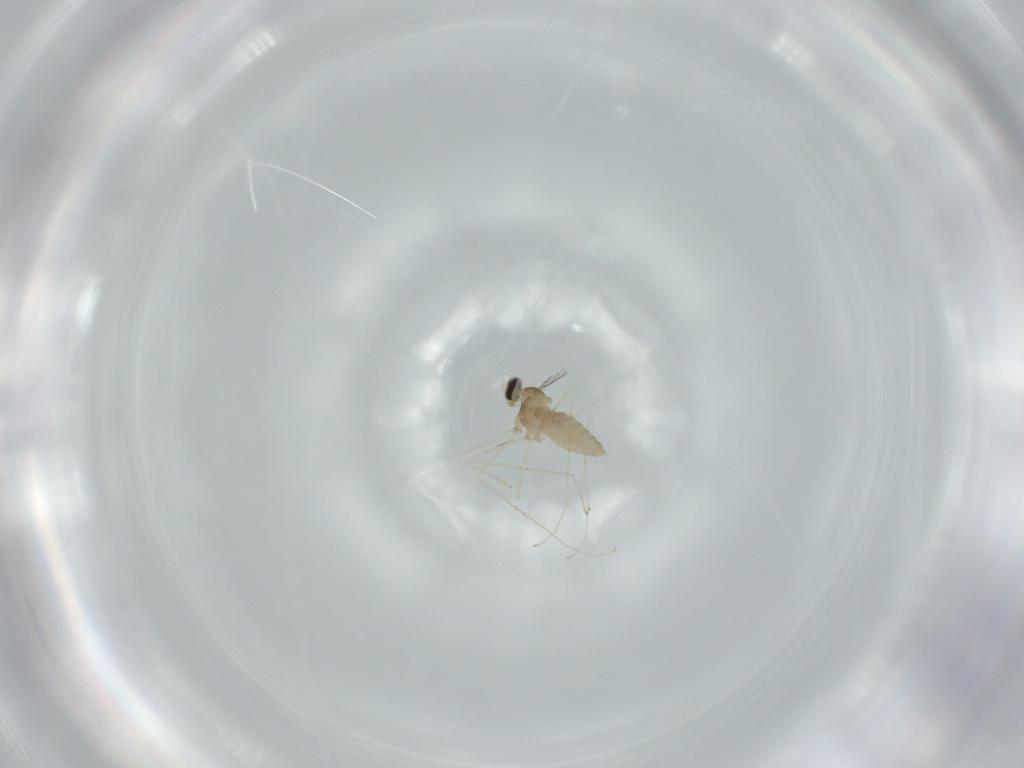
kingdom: Animalia
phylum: Arthropoda
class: Insecta
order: Diptera
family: Cecidomyiidae
